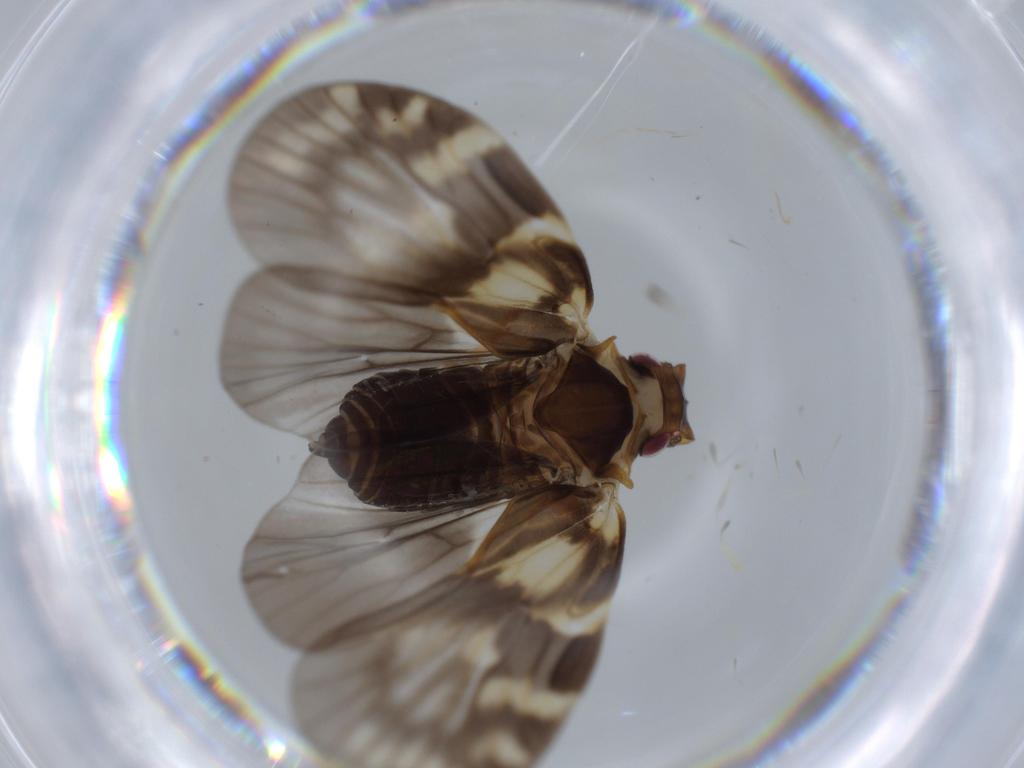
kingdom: Animalia
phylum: Arthropoda
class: Insecta
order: Hemiptera
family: Cixiidae
